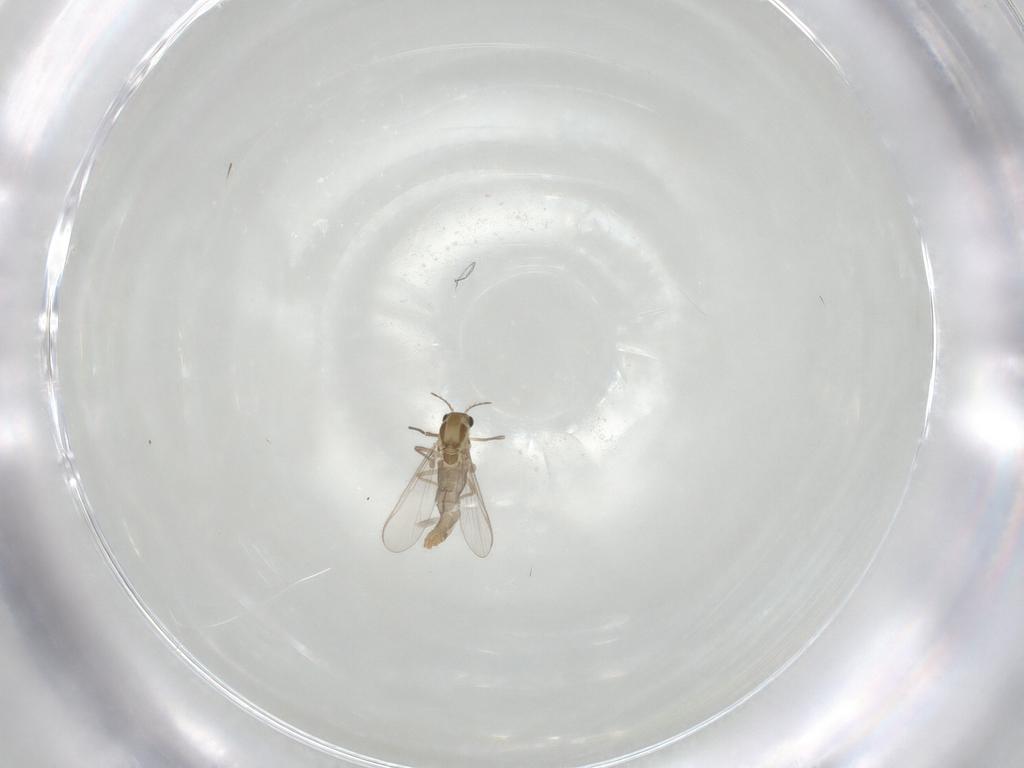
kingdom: Animalia
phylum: Arthropoda
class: Insecta
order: Diptera
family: Chironomidae
